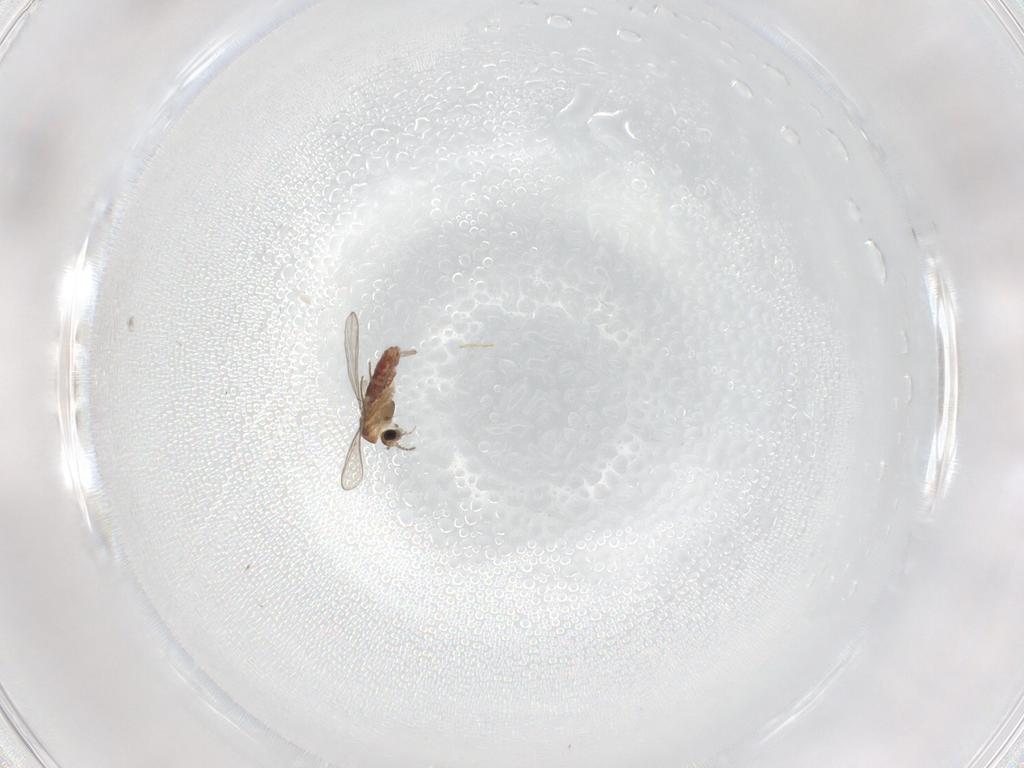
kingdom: Animalia
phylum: Arthropoda
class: Insecta
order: Diptera
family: Chironomidae
